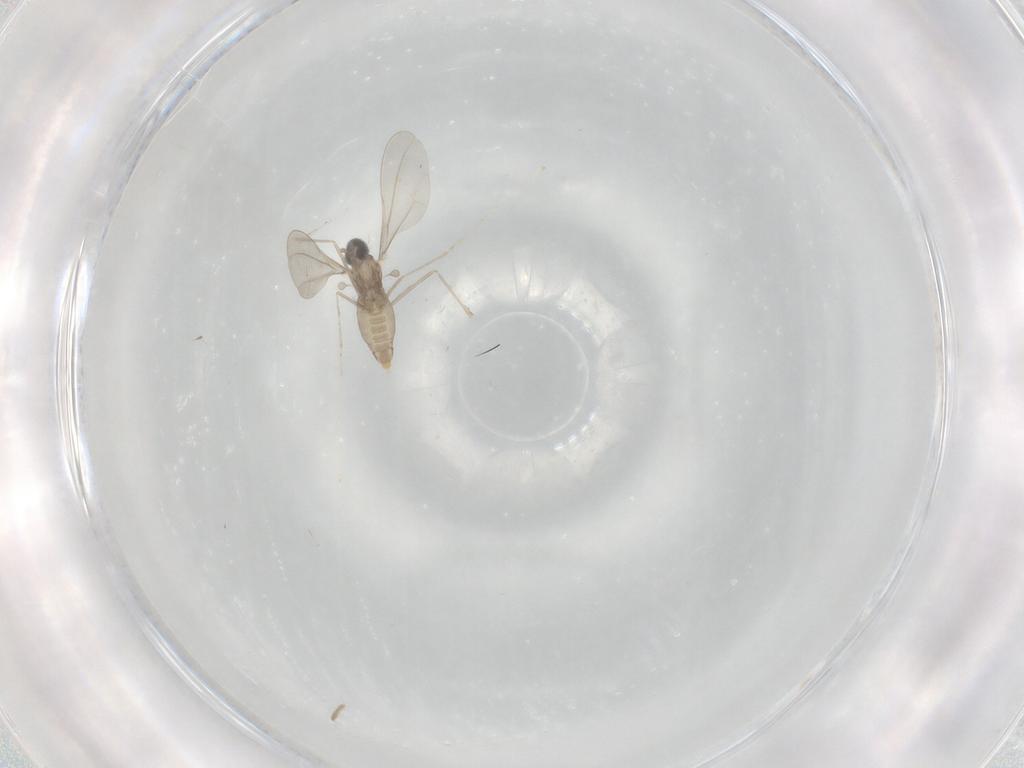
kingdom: Animalia
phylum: Arthropoda
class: Insecta
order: Diptera
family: Cecidomyiidae
